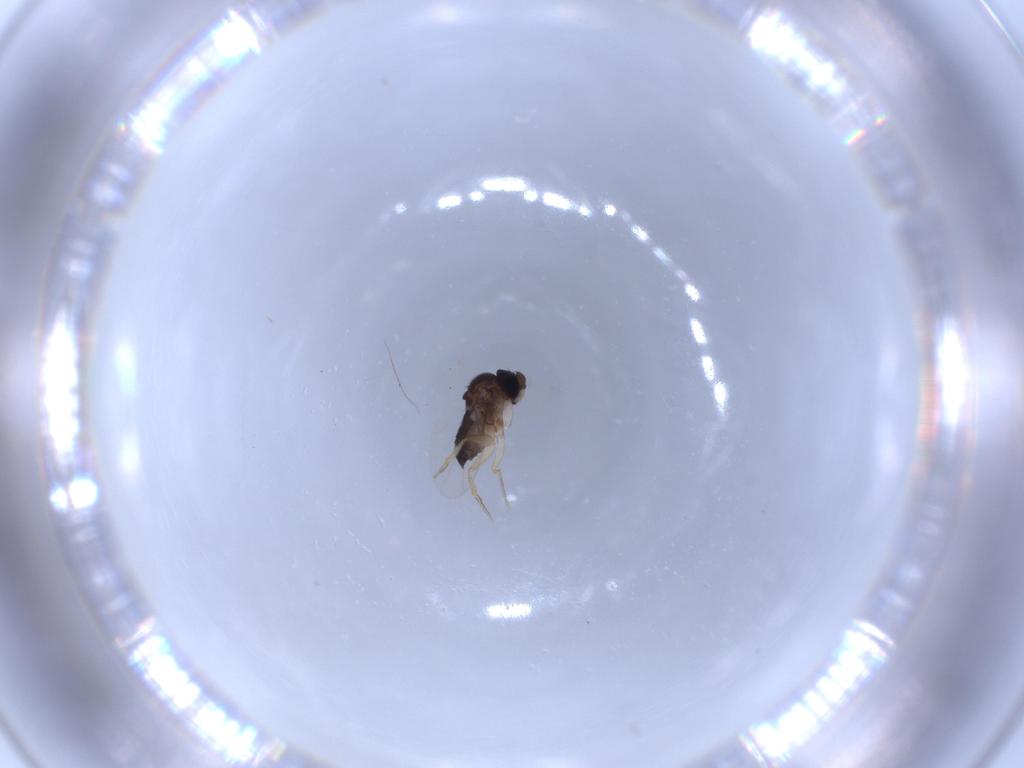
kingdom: Animalia
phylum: Arthropoda
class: Insecta
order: Diptera
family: Phoridae
